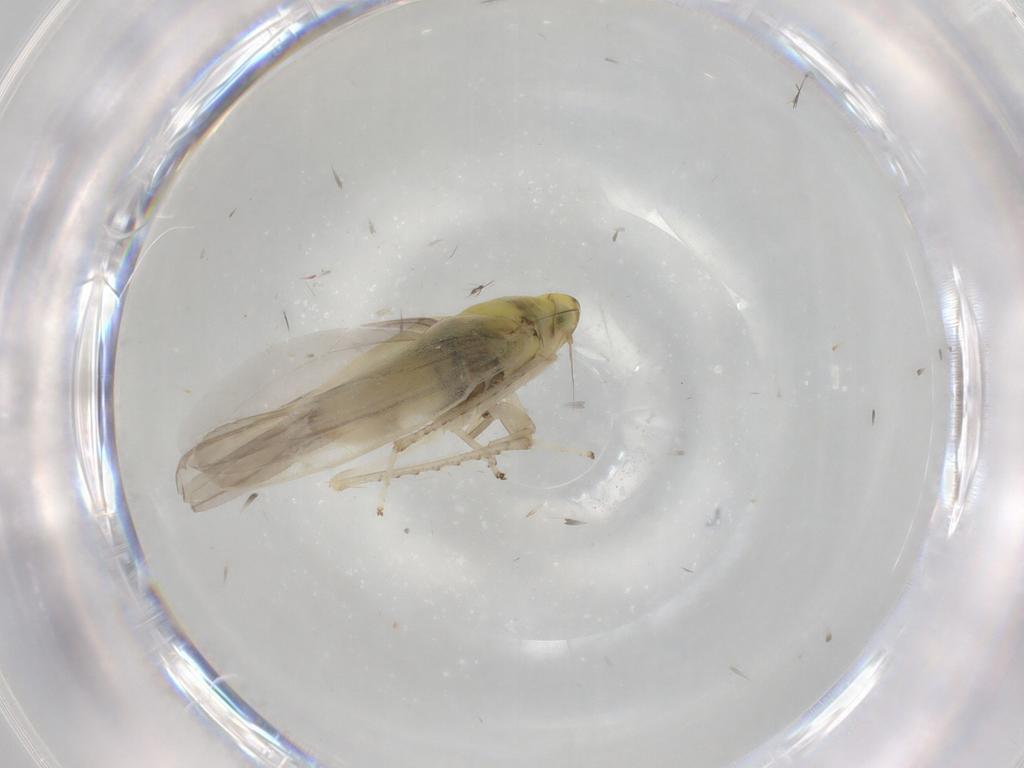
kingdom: Animalia
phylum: Arthropoda
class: Insecta
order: Hemiptera
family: Cicadellidae
